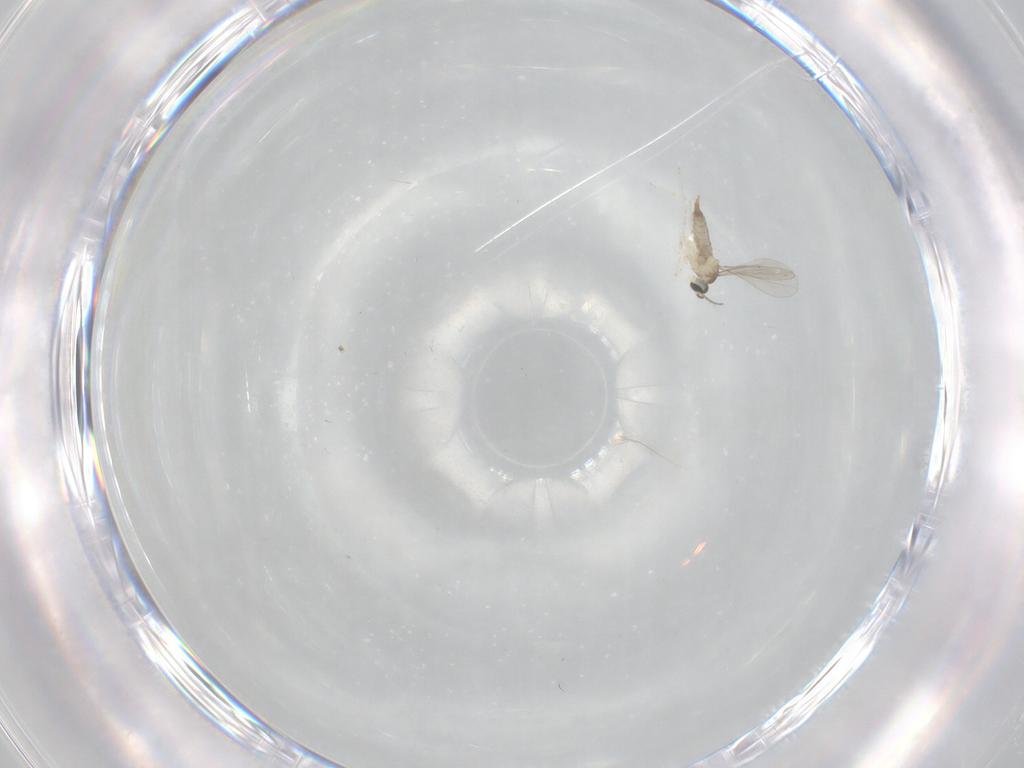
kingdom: Animalia
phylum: Arthropoda
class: Insecta
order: Diptera
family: Psychodidae
